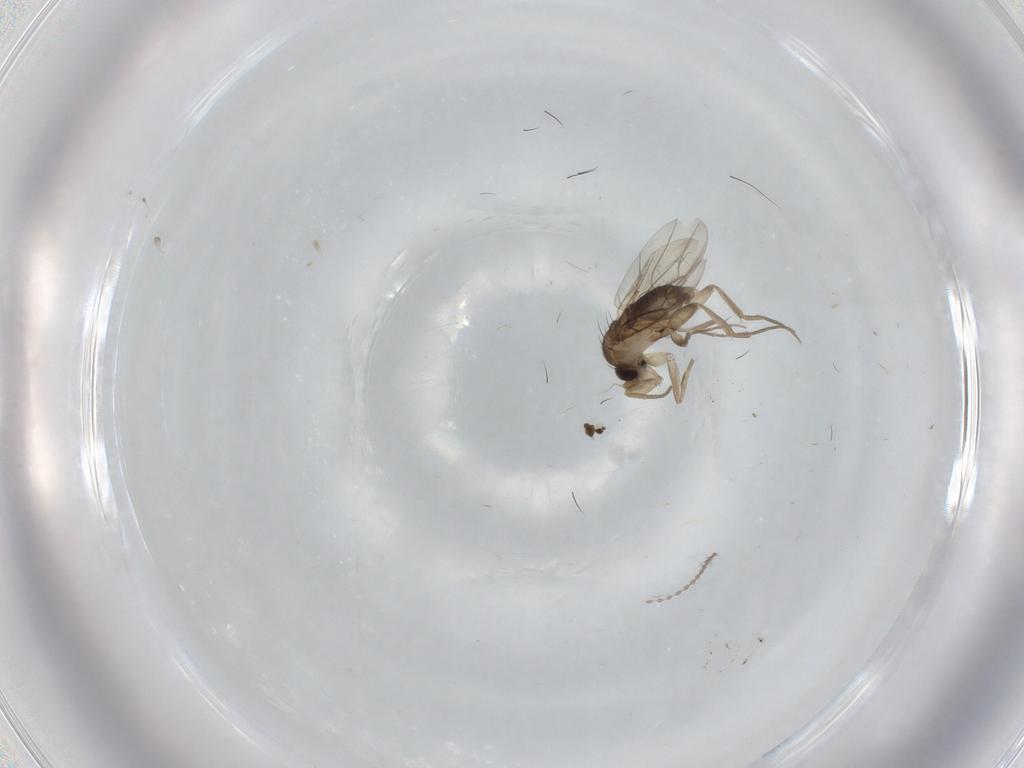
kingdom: Animalia
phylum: Arthropoda
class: Insecta
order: Diptera
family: Cecidomyiidae
